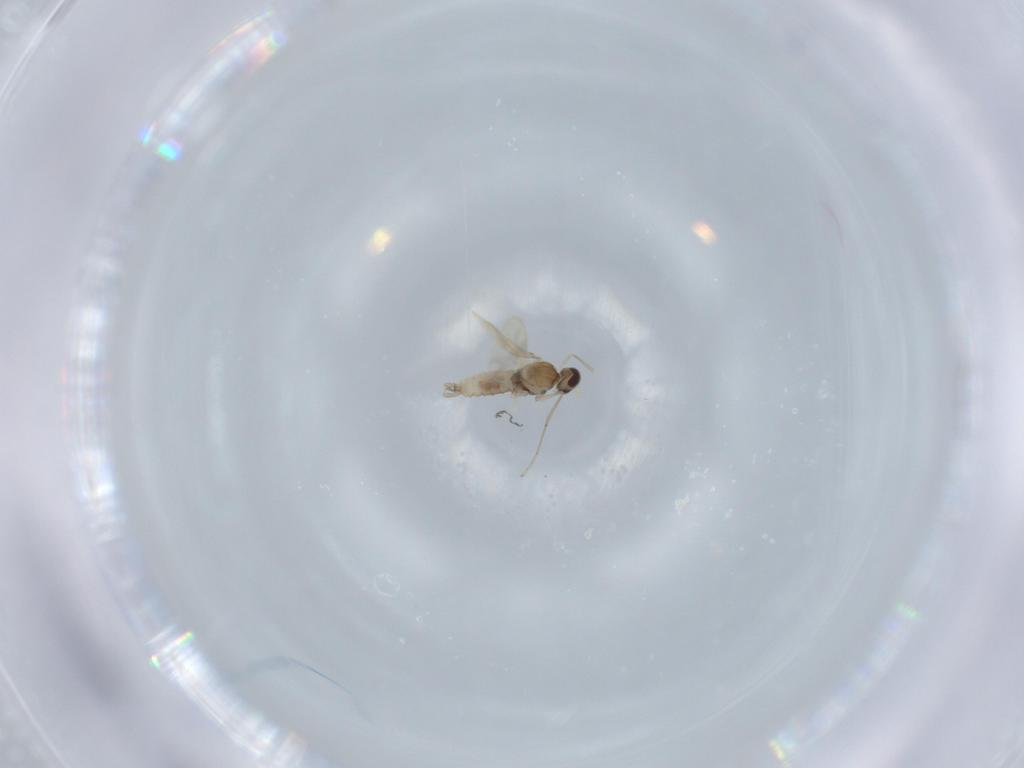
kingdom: Animalia
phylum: Arthropoda
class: Insecta
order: Diptera
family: Cecidomyiidae
